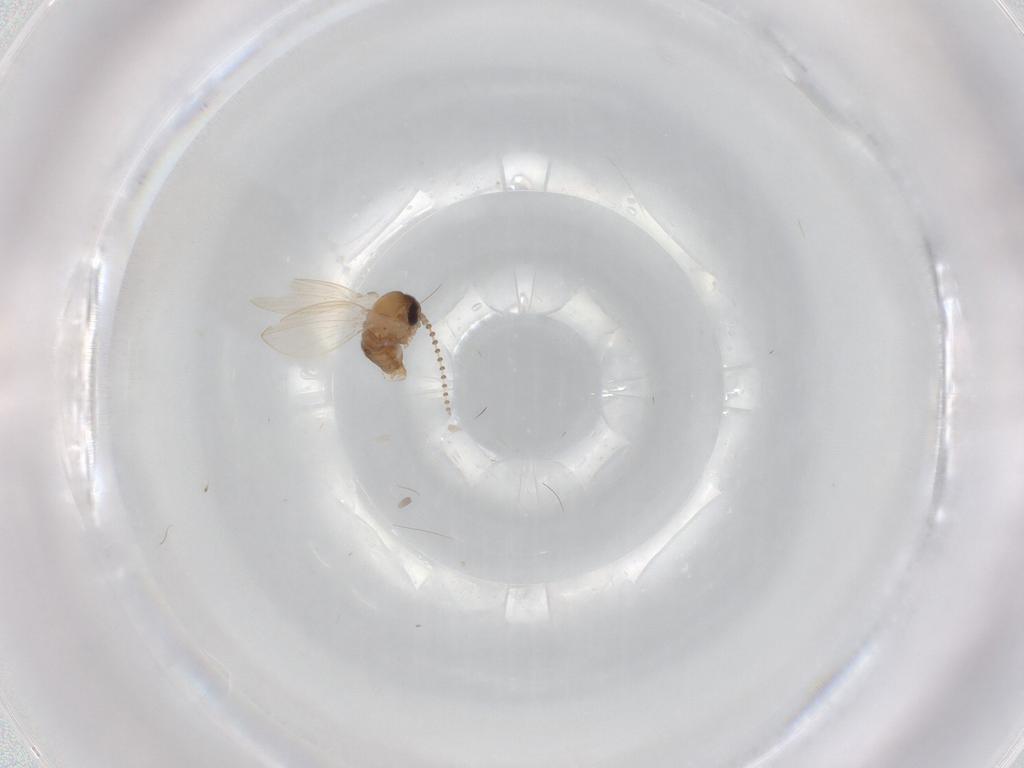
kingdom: Animalia
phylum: Arthropoda
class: Insecta
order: Diptera
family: Psychodidae
